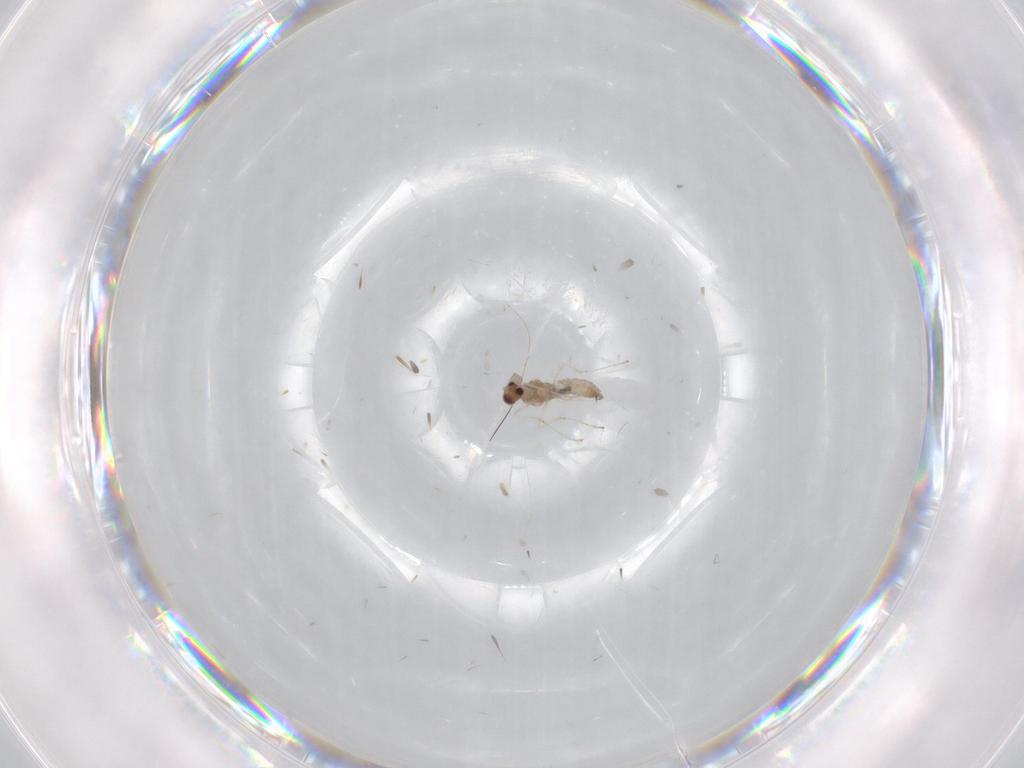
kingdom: Animalia
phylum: Arthropoda
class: Insecta
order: Diptera
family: Cecidomyiidae
